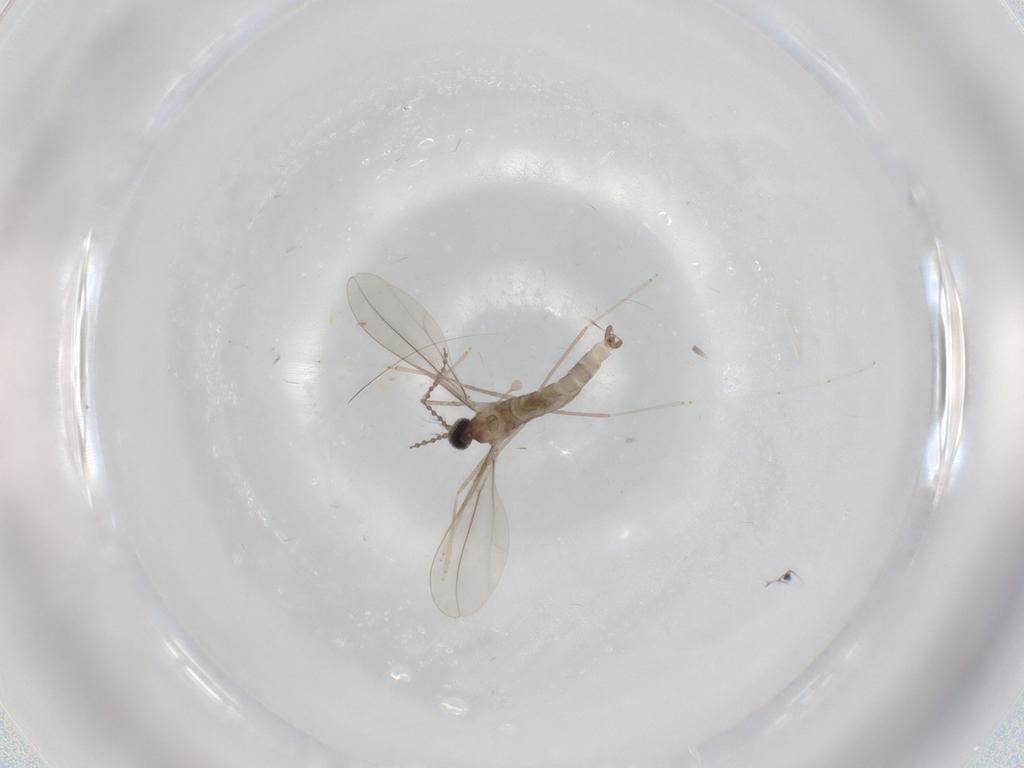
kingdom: Animalia
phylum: Arthropoda
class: Insecta
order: Diptera
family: Cecidomyiidae
